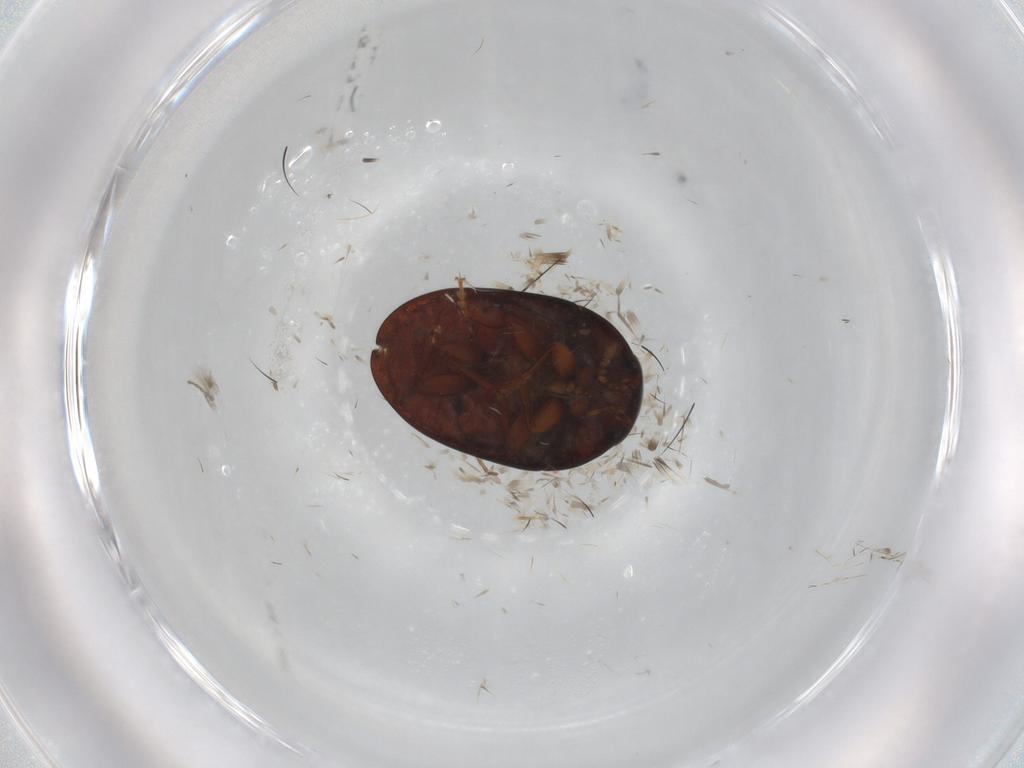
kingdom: Animalia
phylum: Arthropoda
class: Insecta
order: Coleoptera
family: Phalacridae
